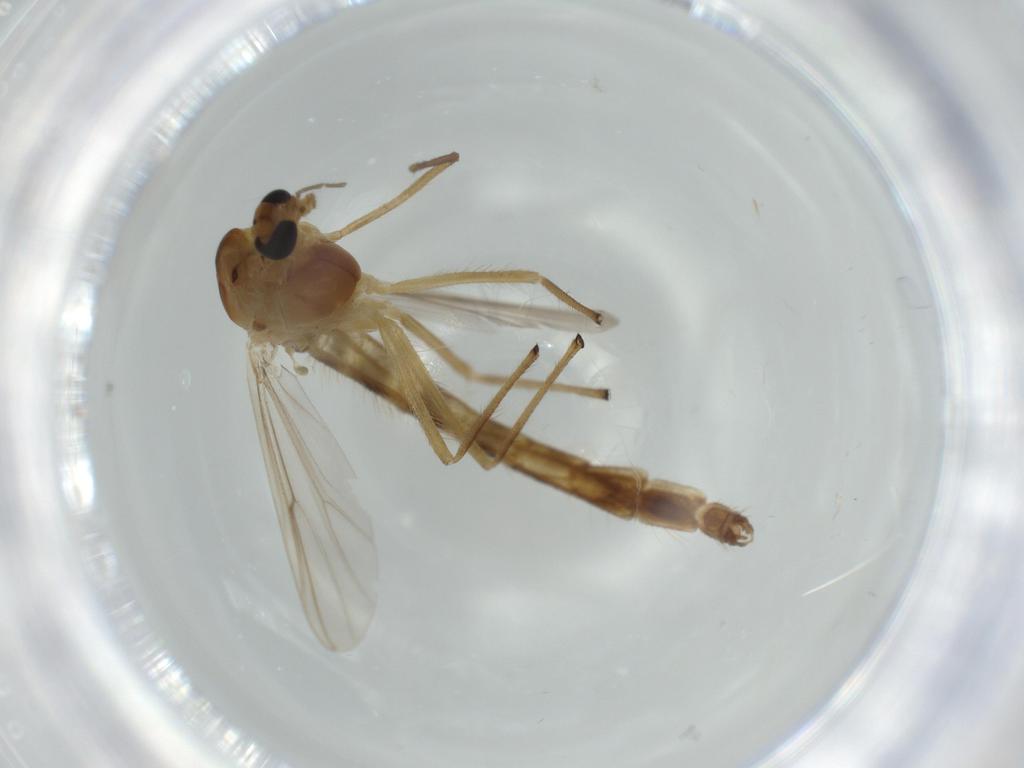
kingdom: Animalia
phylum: Arthropoda
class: Insecta
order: Diptera
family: Chironomidae
